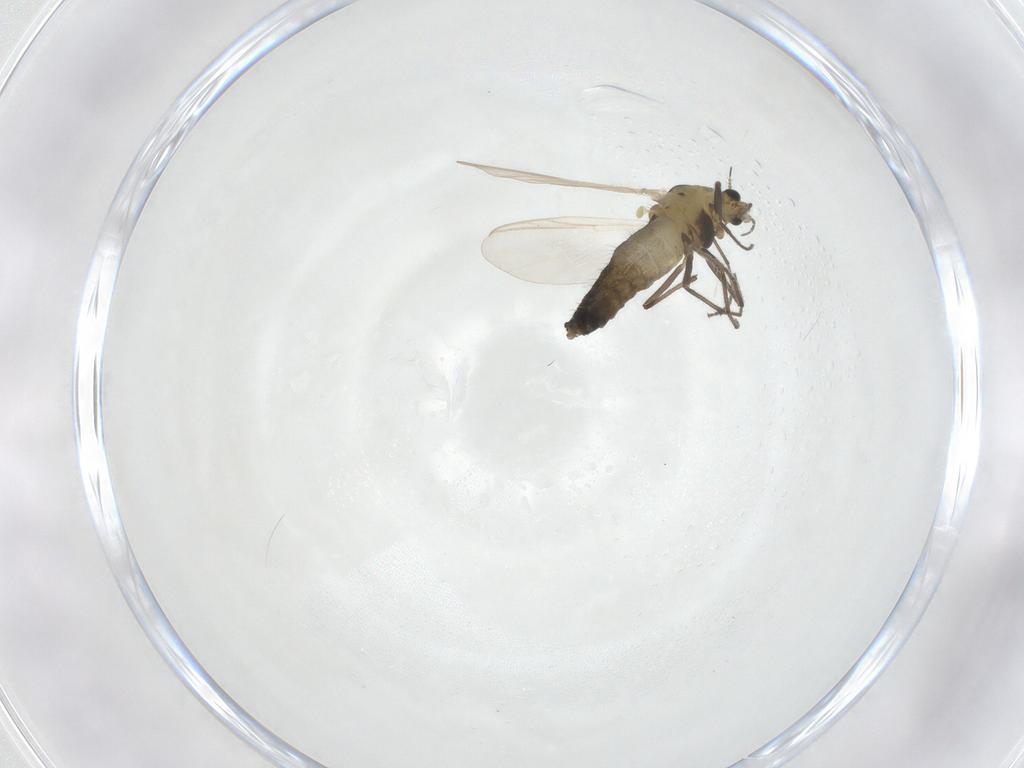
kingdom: Animalia
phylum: Arthropoda
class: Insecta
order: Diptera
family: Chironomidae
